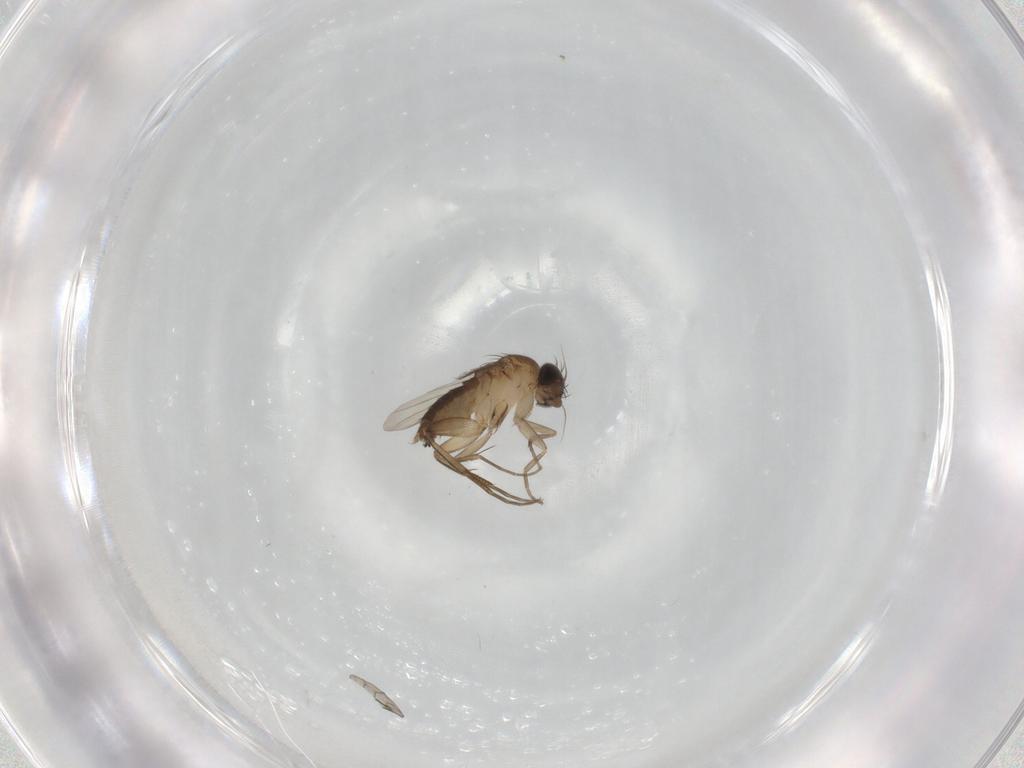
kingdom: Animalia
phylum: Arthropoda
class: Insecta
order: Diptera
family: Phoridae
